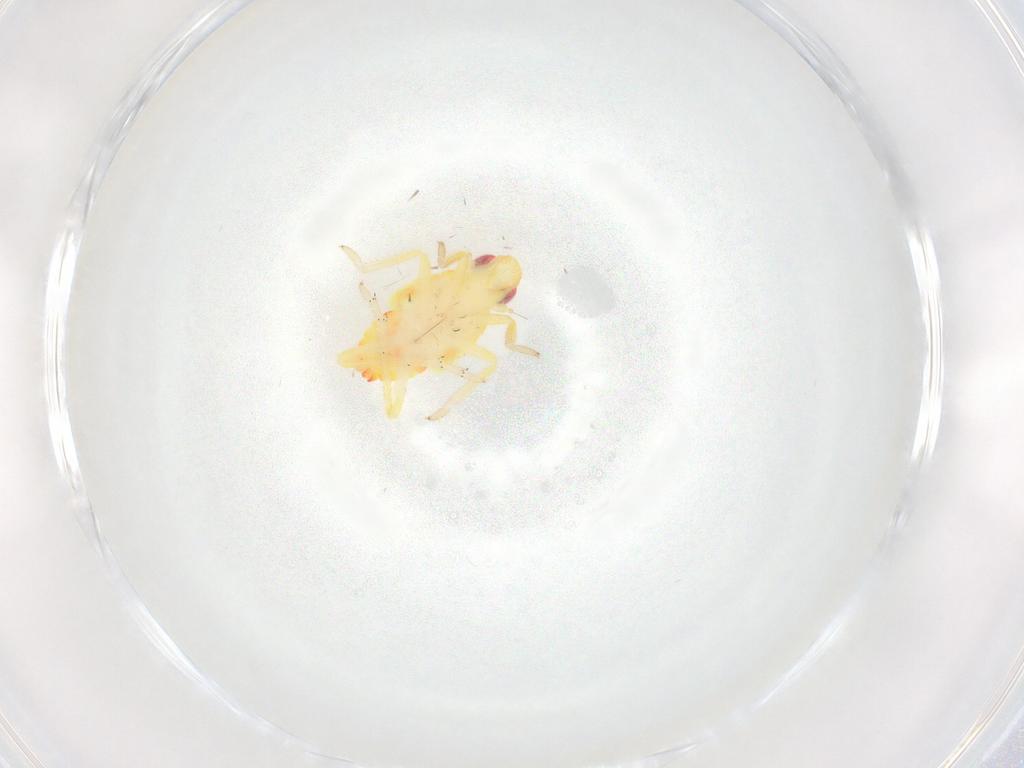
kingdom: Animalia
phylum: Arthropoda
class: Insecta
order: Hemiptera
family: Tropiduchidae
